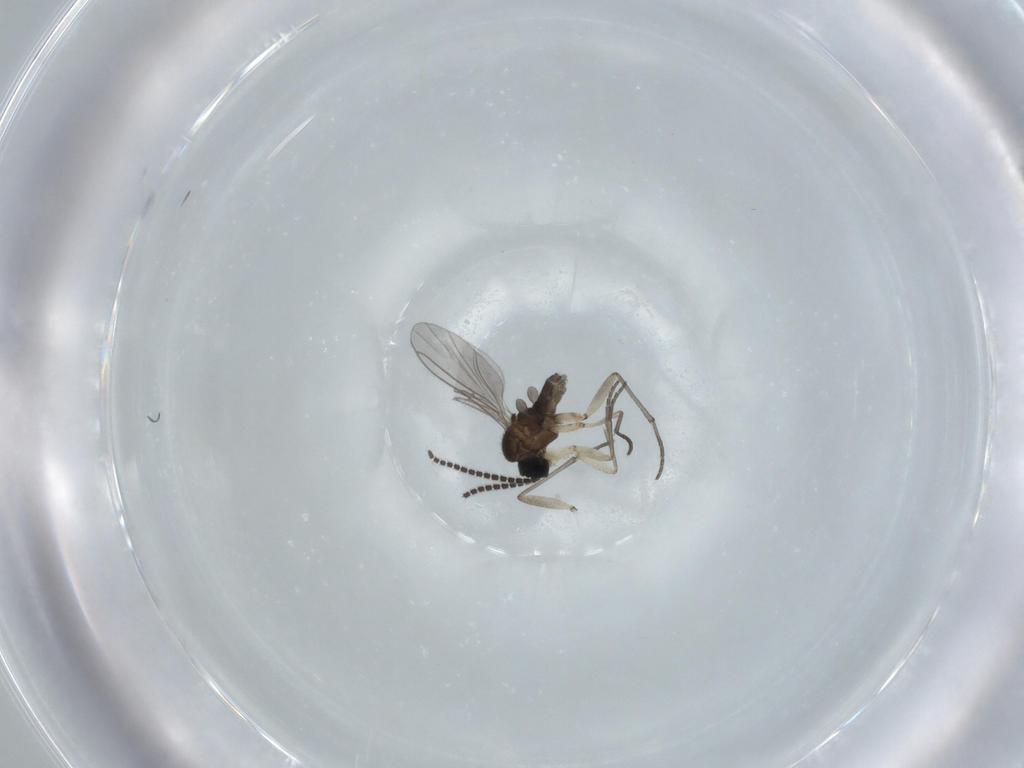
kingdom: Animalia
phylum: Arthropoda
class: Insecta
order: Diptera
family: Sciaridae
